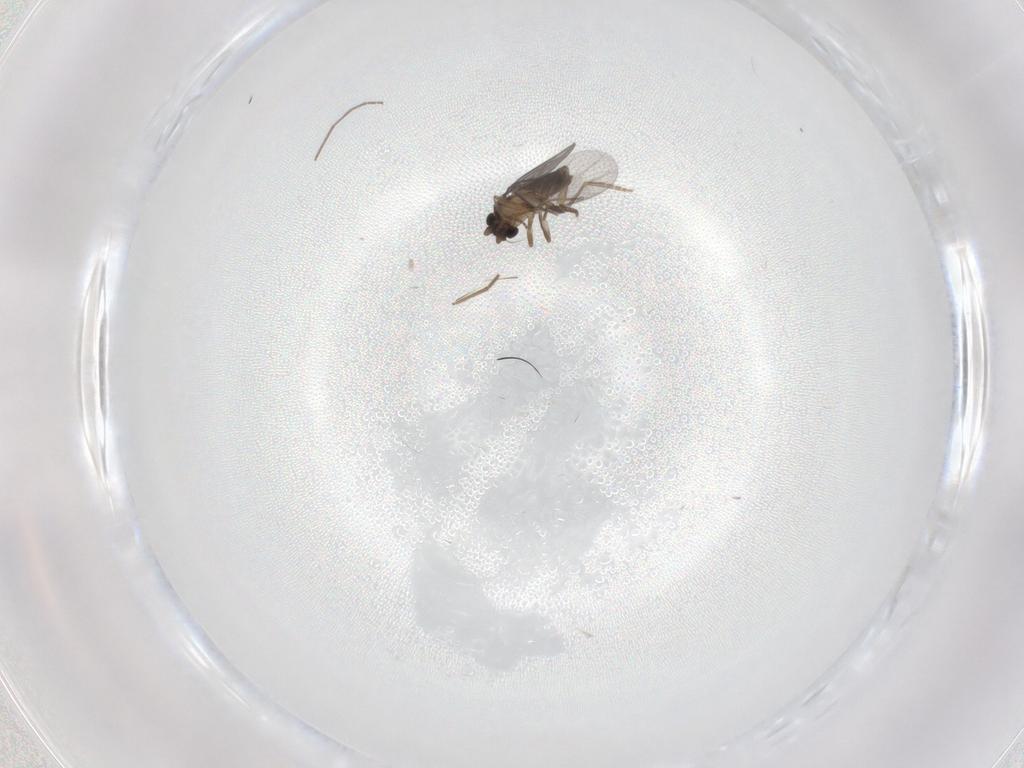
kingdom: Animalia
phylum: Arthropoda
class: Insecta
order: Diptera
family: Chironomidae
